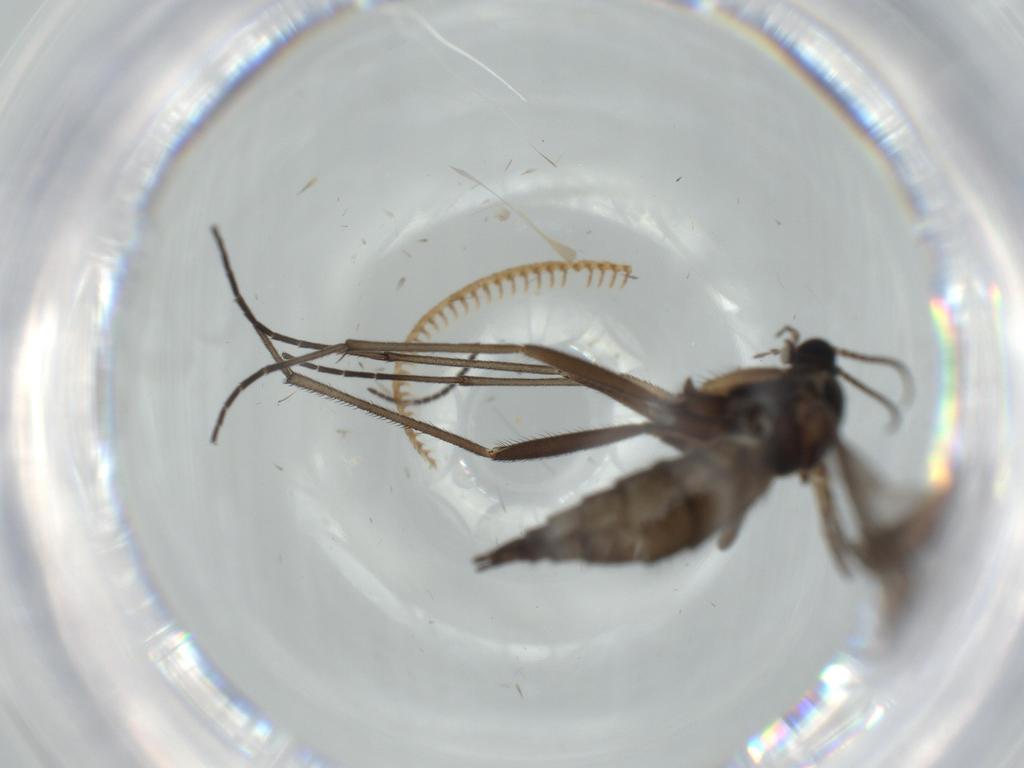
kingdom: Animalia
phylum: Arthropoda
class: Insecta
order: Diptera
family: Sciaridae
